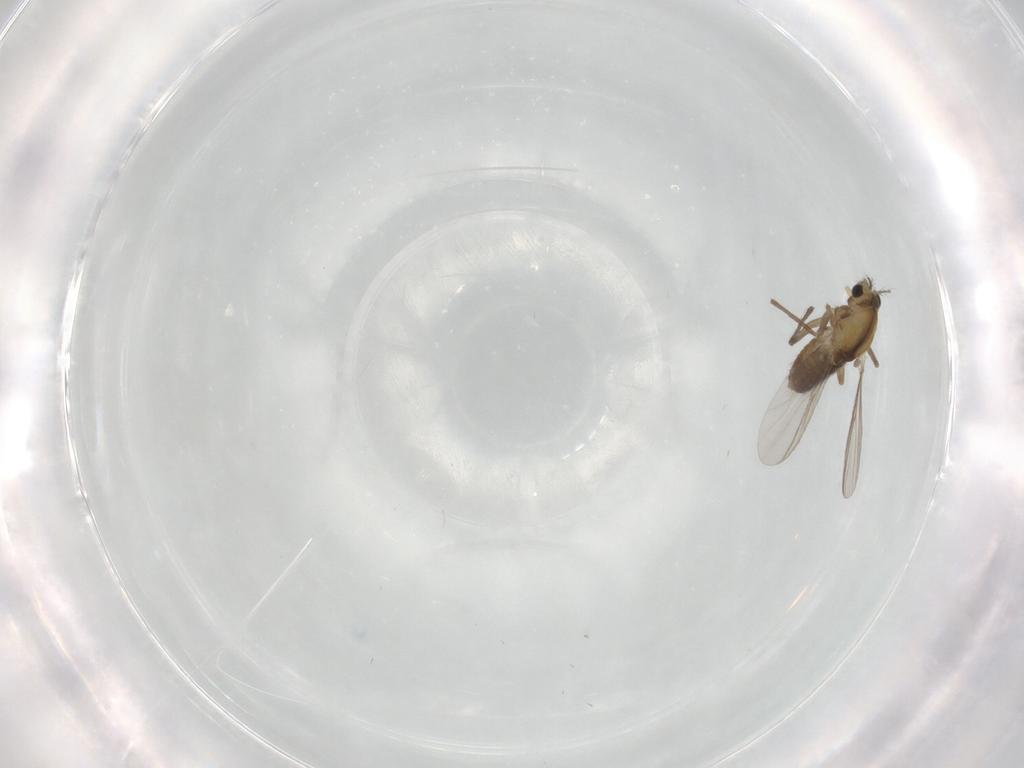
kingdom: Animalia
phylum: Arthropoda
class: Insecta
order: Diptera
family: Chironomidae
